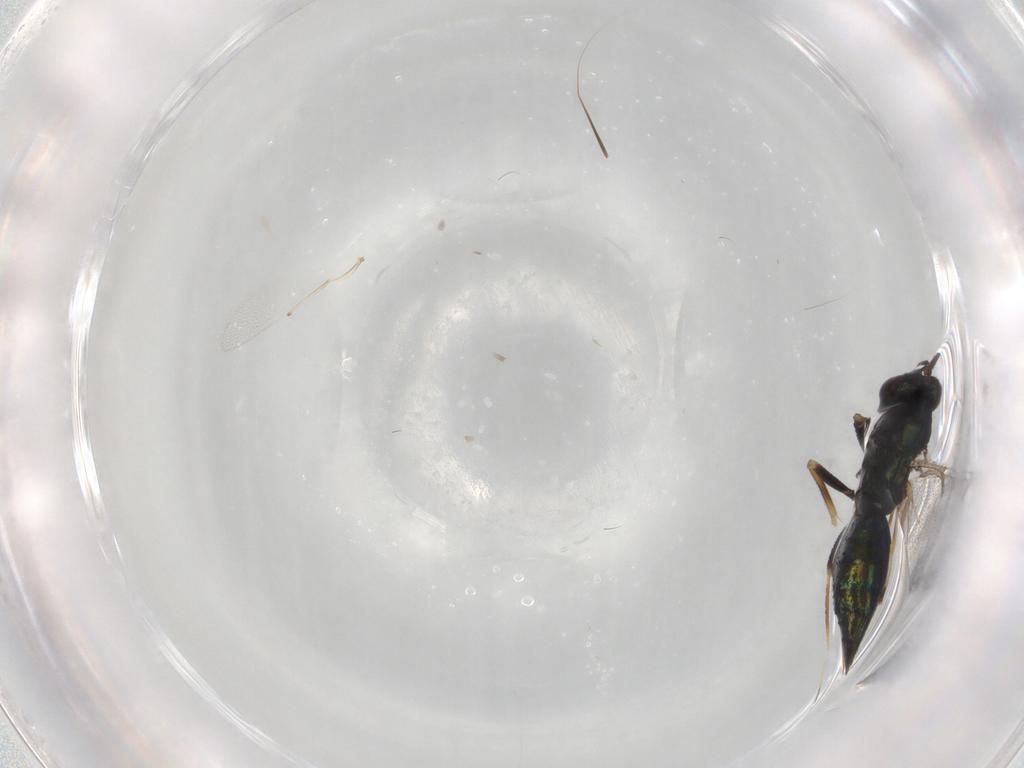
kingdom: Animalia
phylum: Arthropoda
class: Insecta
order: Hymenoptera
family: Eulophidae
